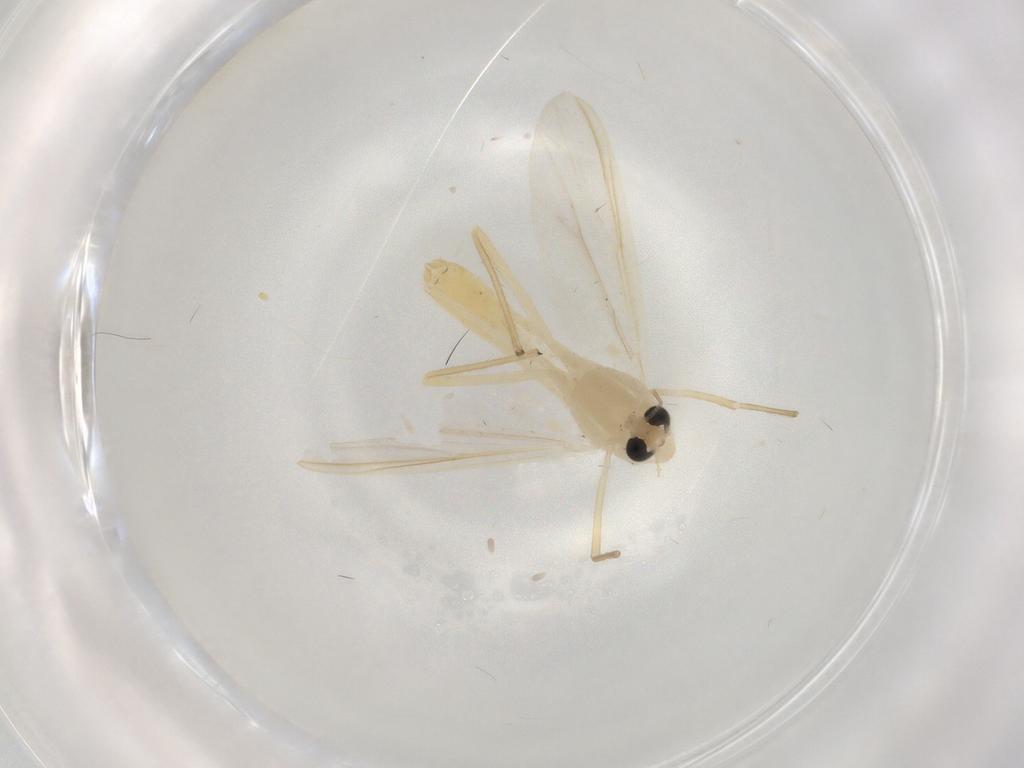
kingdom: Animalia
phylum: Arthropoda
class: Insecta
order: Diptera
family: Chironomidae
